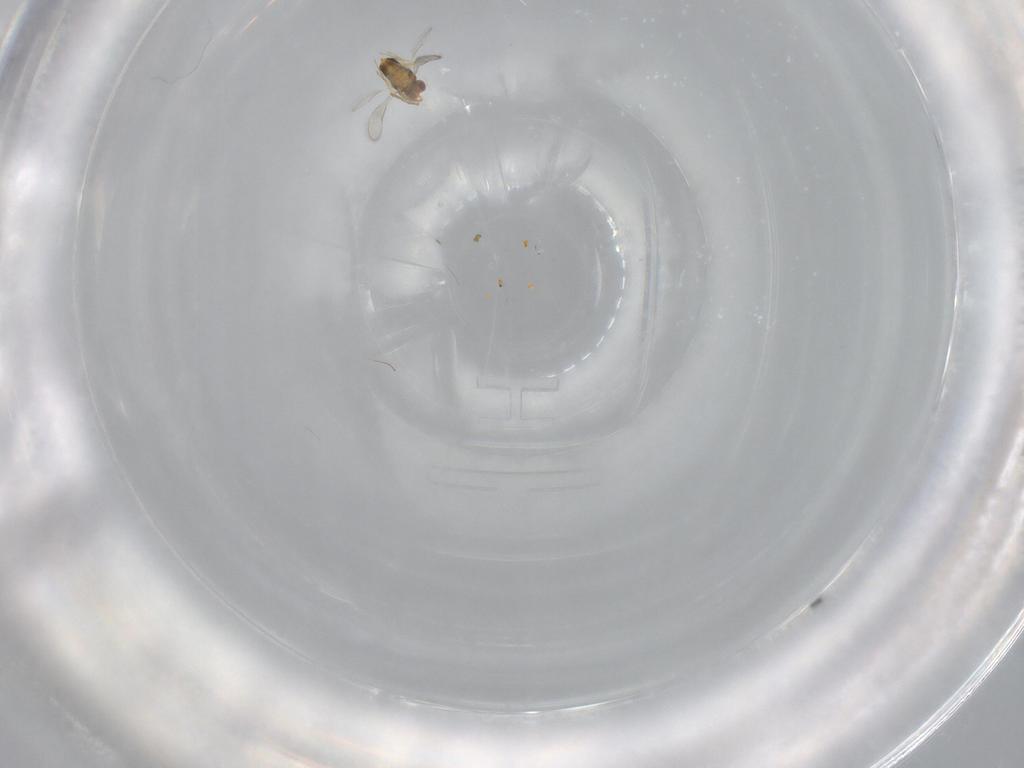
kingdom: Animalia
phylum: Arthropoda
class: Insecta
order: Hymenoptera
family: Aphelinidae
